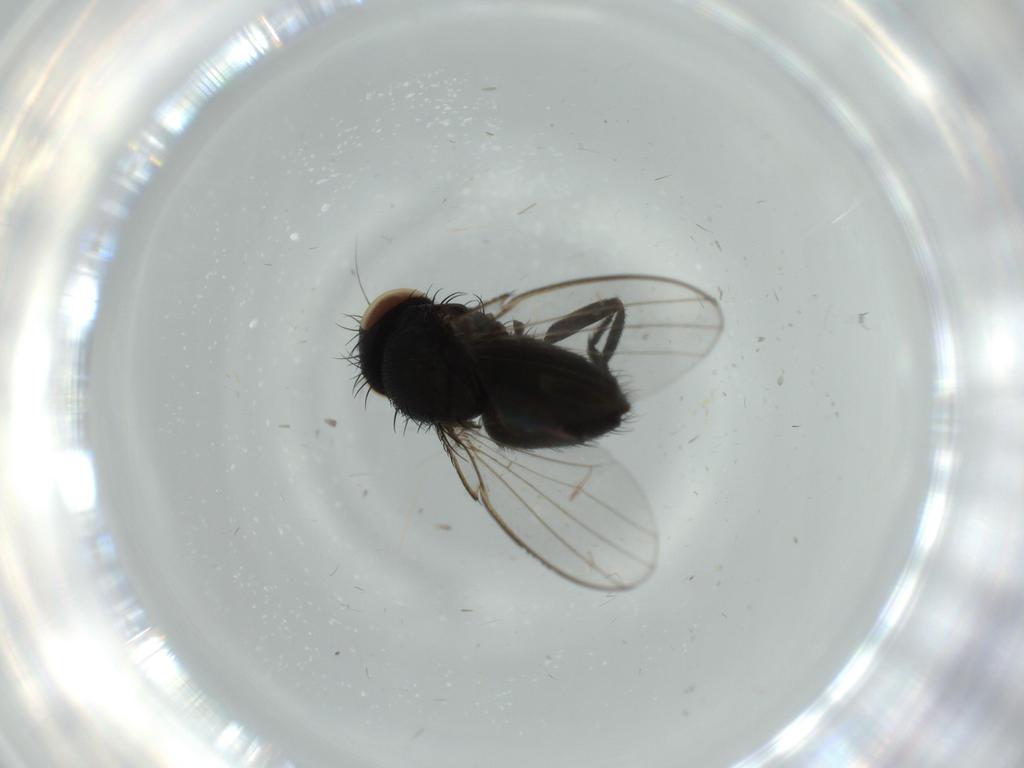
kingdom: Animalia
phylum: Arthropoda
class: Insecta
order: Diptera
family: Milichiidae
